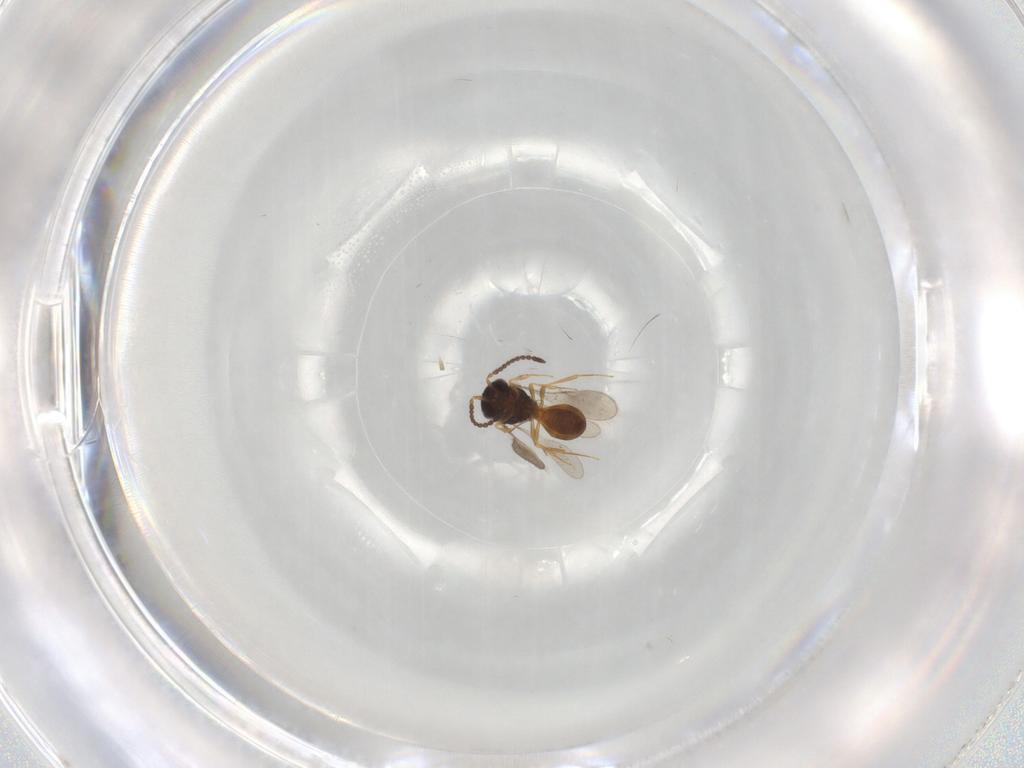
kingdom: Animalia
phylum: Arthropoda
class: Insecta
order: Hymenoptera
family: Scelionidae
